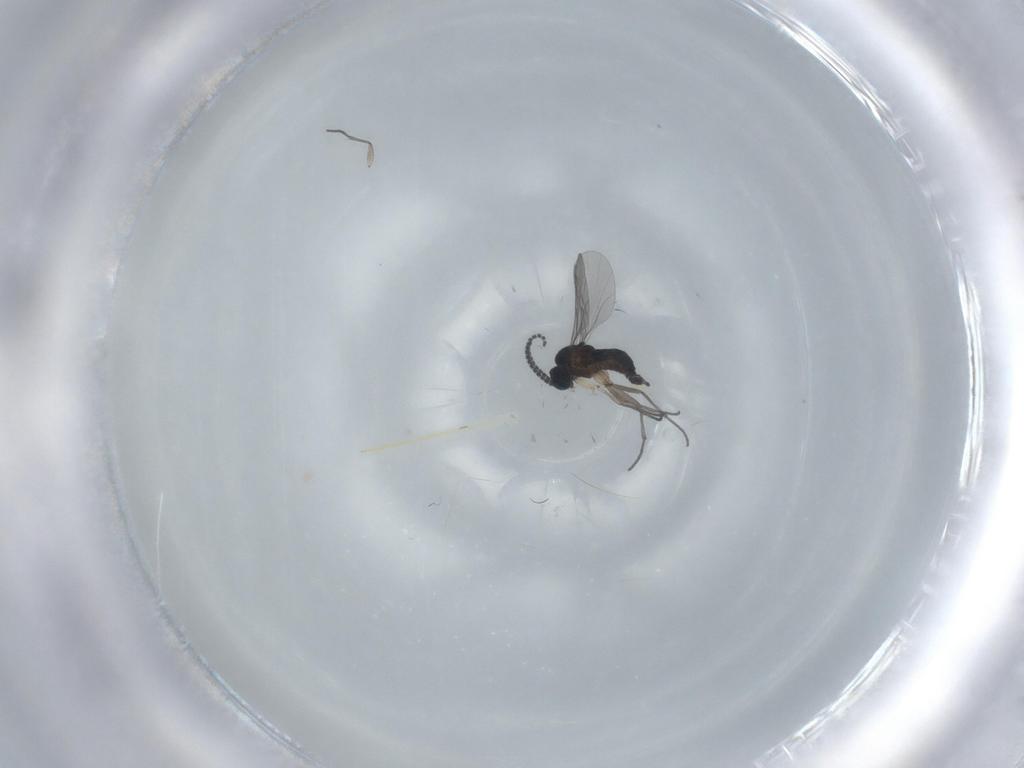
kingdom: Animalia
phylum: Arthropoda
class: Insecta
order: Diptera
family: Sciaridae
